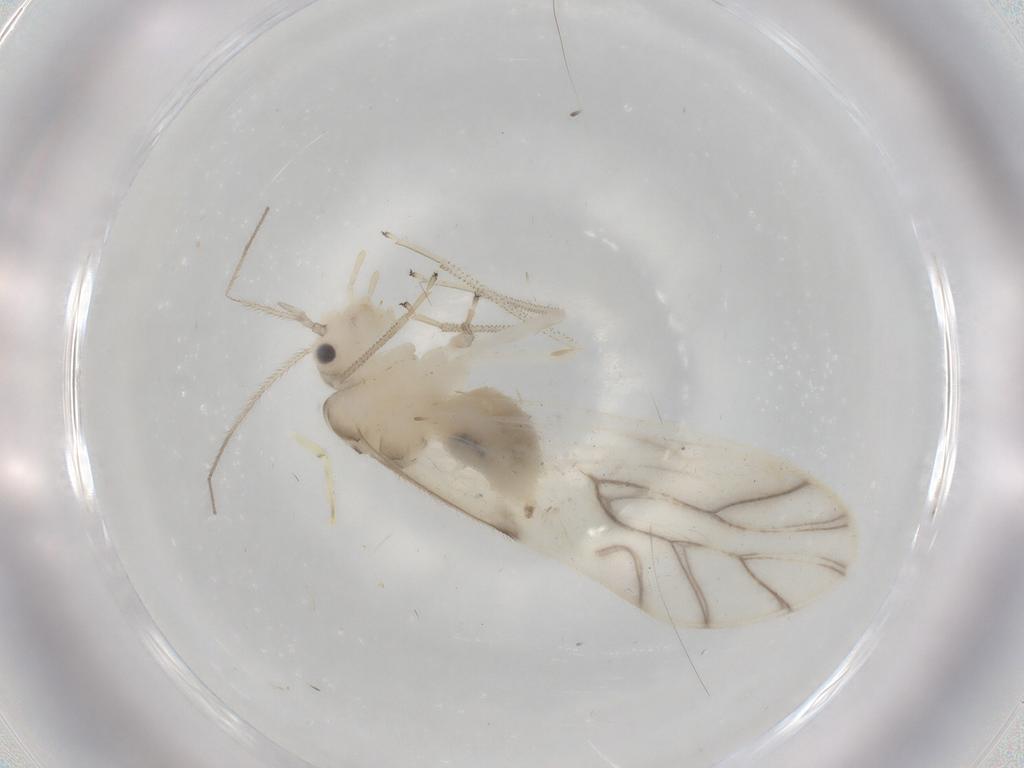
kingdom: Animalia
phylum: Arthropoda
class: Insecta
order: Psocodea
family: Caeciliusidae
